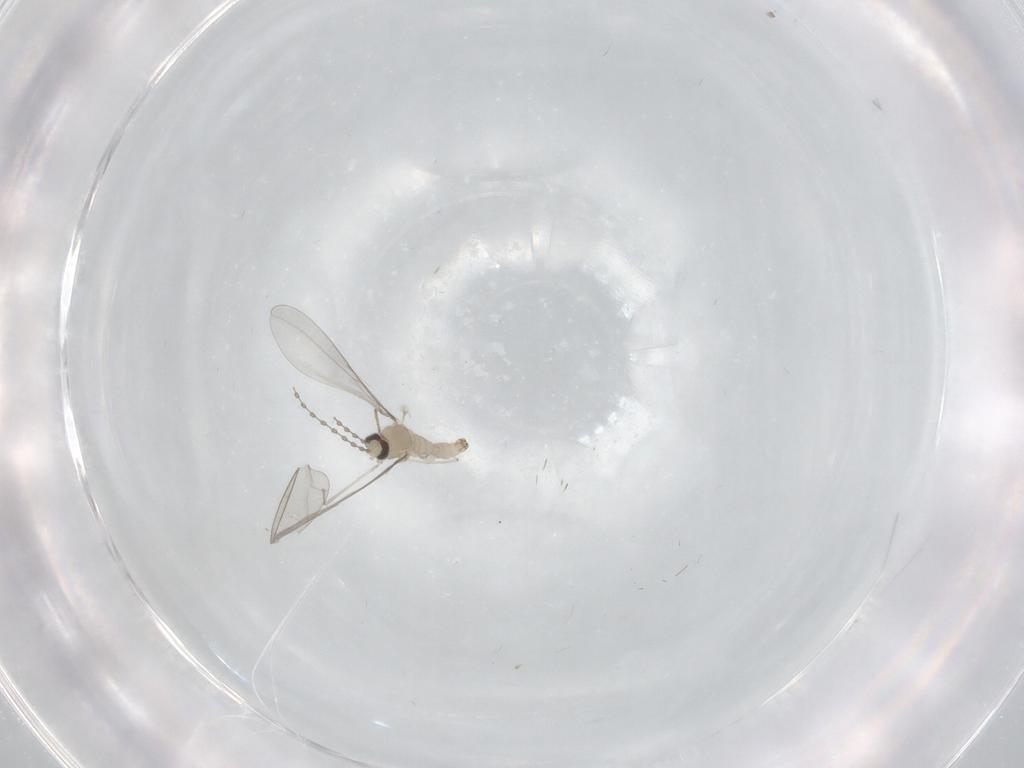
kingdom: Animalia
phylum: Arthropoda
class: Insecta
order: Diptera
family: Cecidomyiidae
